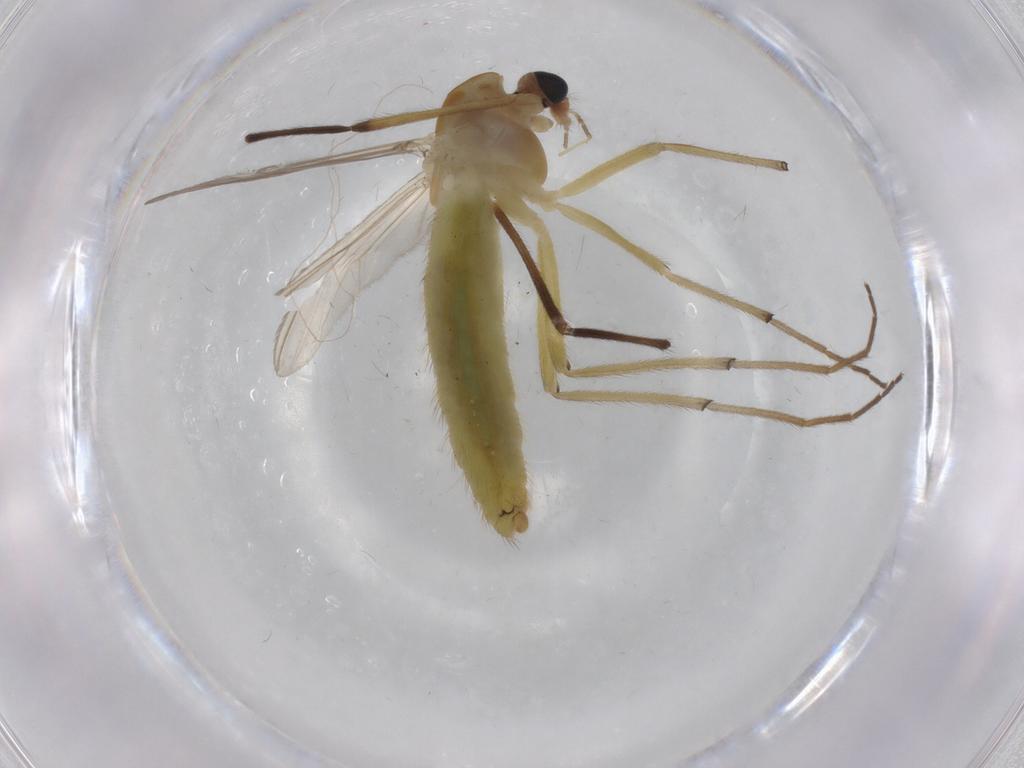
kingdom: Animalia
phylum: Arthropoda
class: Insecta
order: Diptera
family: Chironomidae
